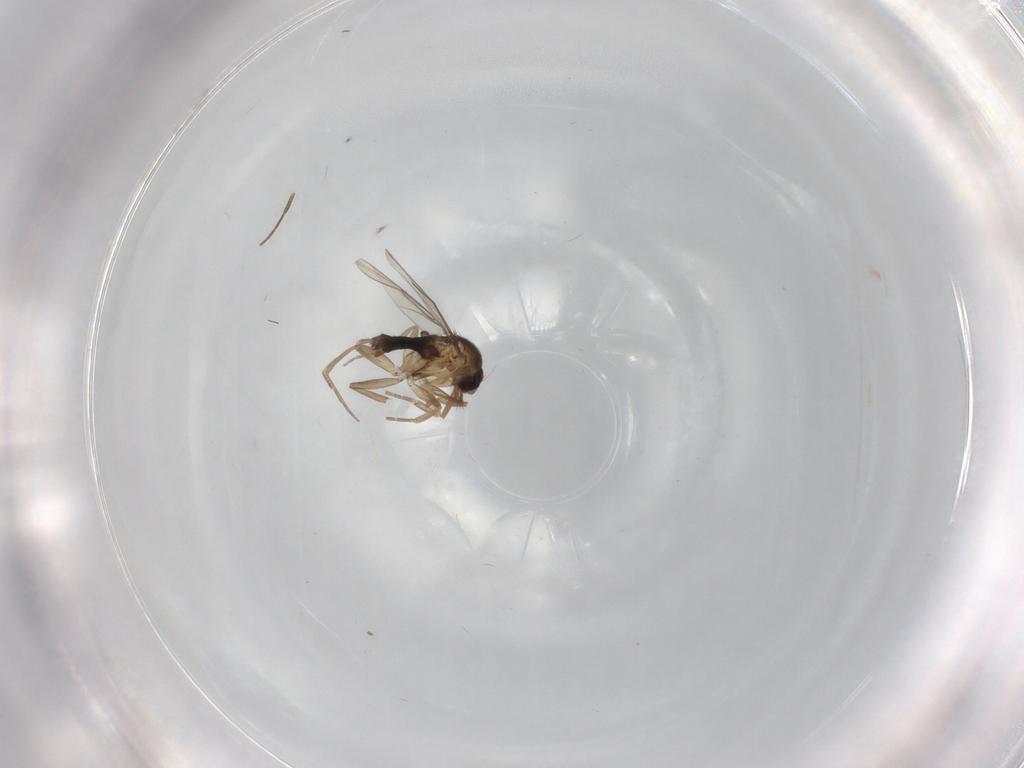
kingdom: Animalia
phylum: Arthropoda
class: Insecta
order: Diptera
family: Phoridae
